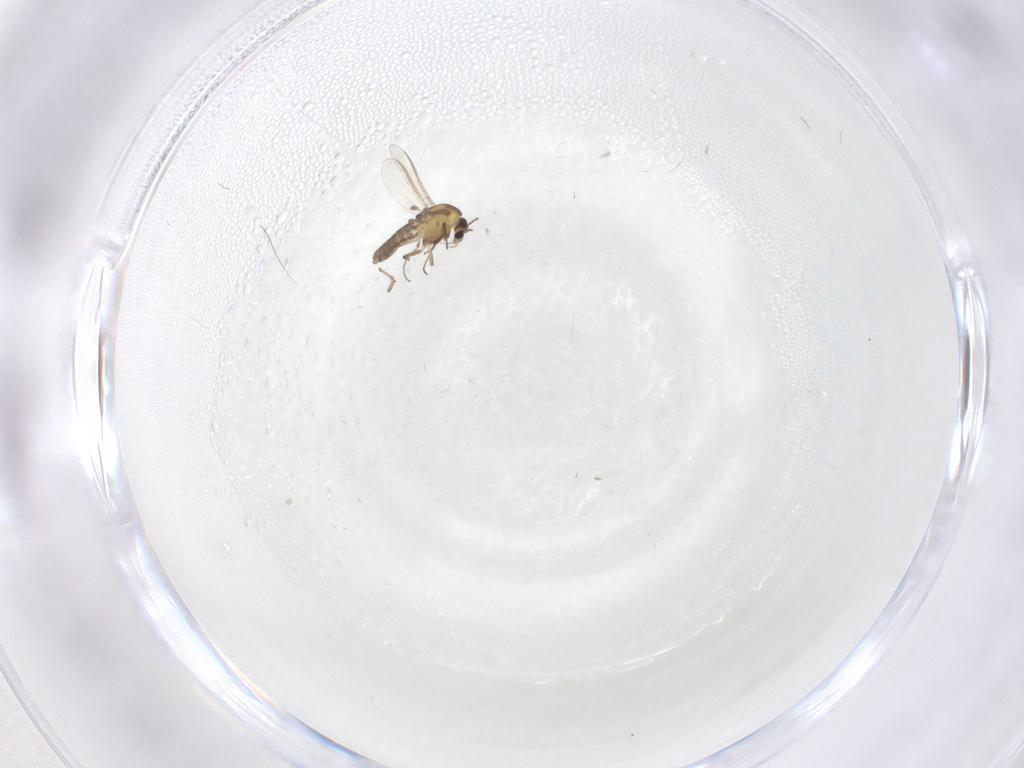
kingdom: Animalia
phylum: Arthropoda
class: Insecta
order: Diptera
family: Chironomidae
